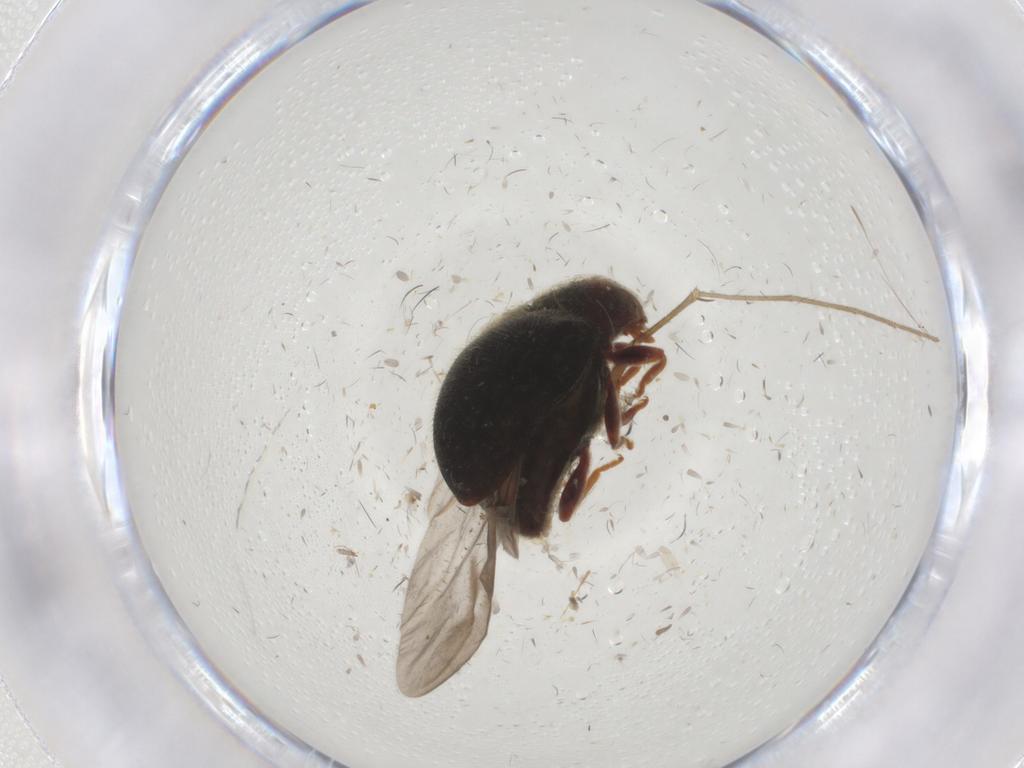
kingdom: Animalia
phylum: Arthropoda
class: Insecta
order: Coleoptera
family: Coccinellidae
